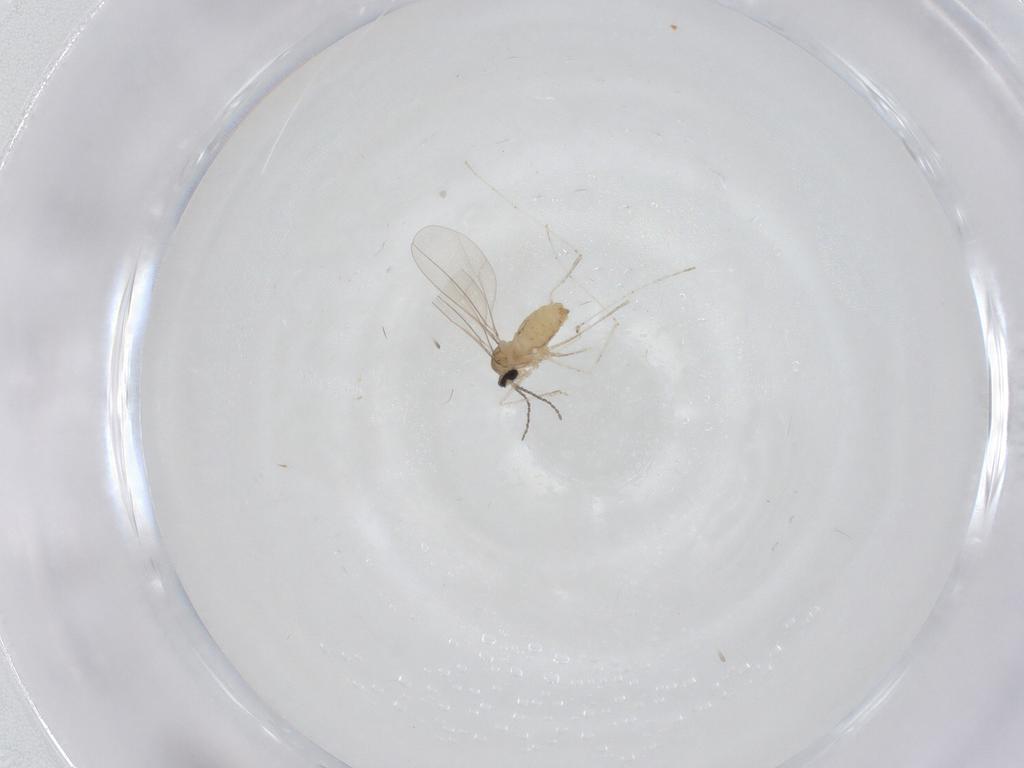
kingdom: Animalia
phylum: Arthropoda
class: Insecta
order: Diptera
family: Cecidomyiidae
